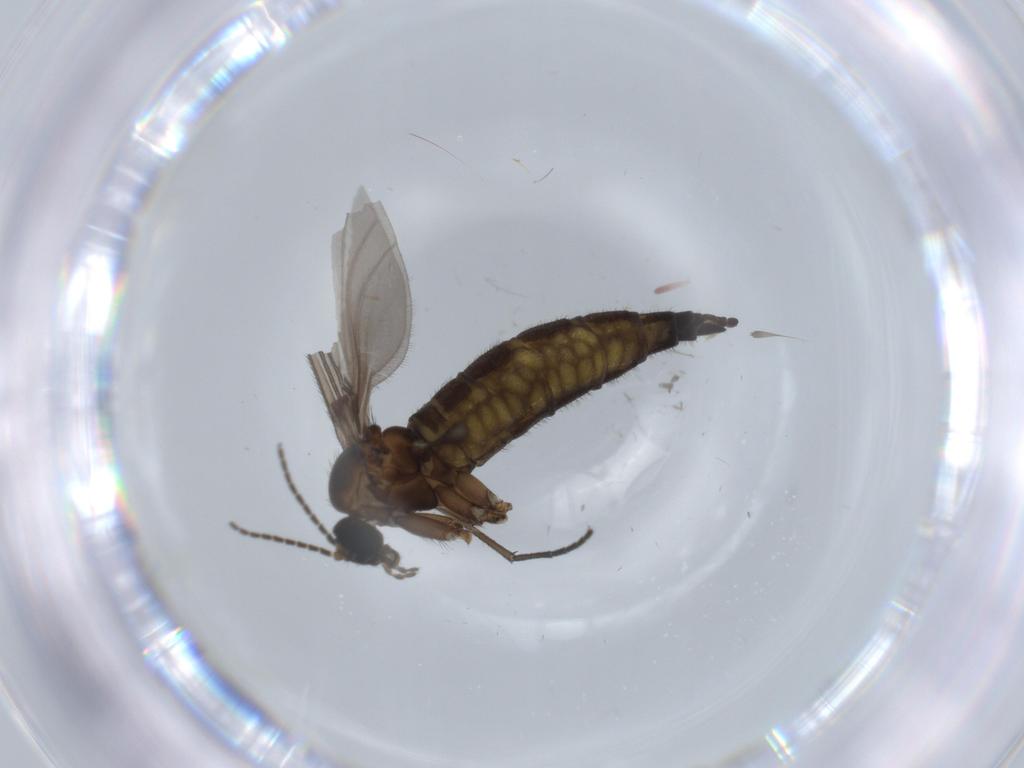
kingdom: Animalia
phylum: Arthropoda
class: Insecta
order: Diptera
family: Sciaridae
